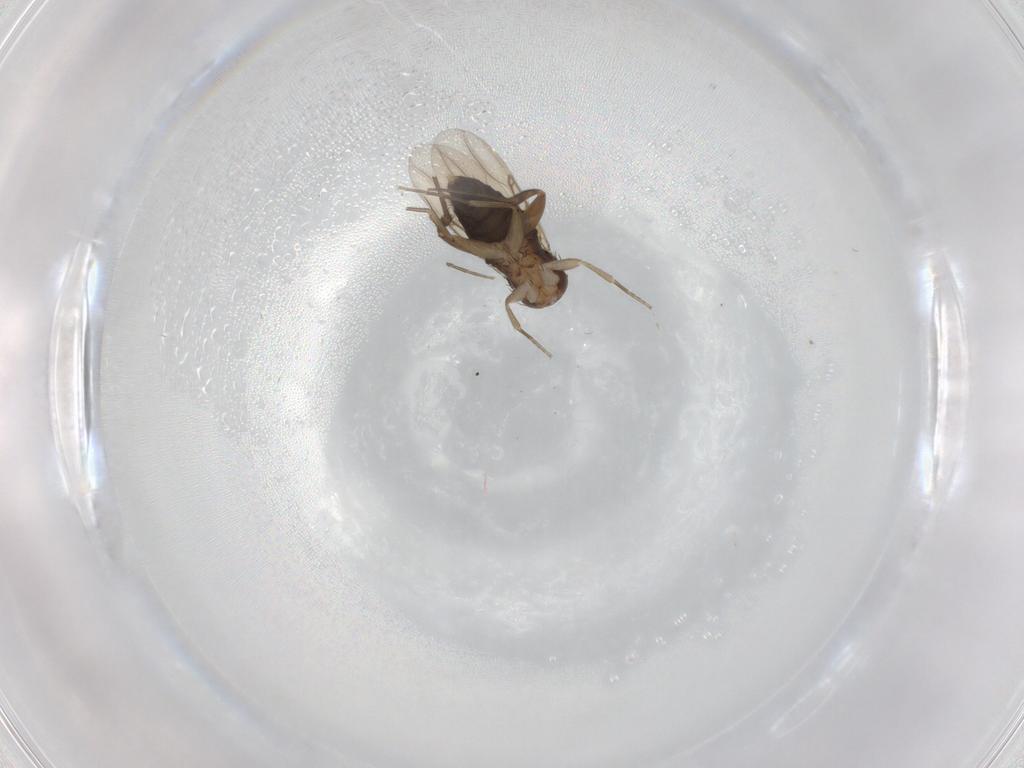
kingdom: Animalia
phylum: Arthropoda
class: Insecta
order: Diptera
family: Phoridae
